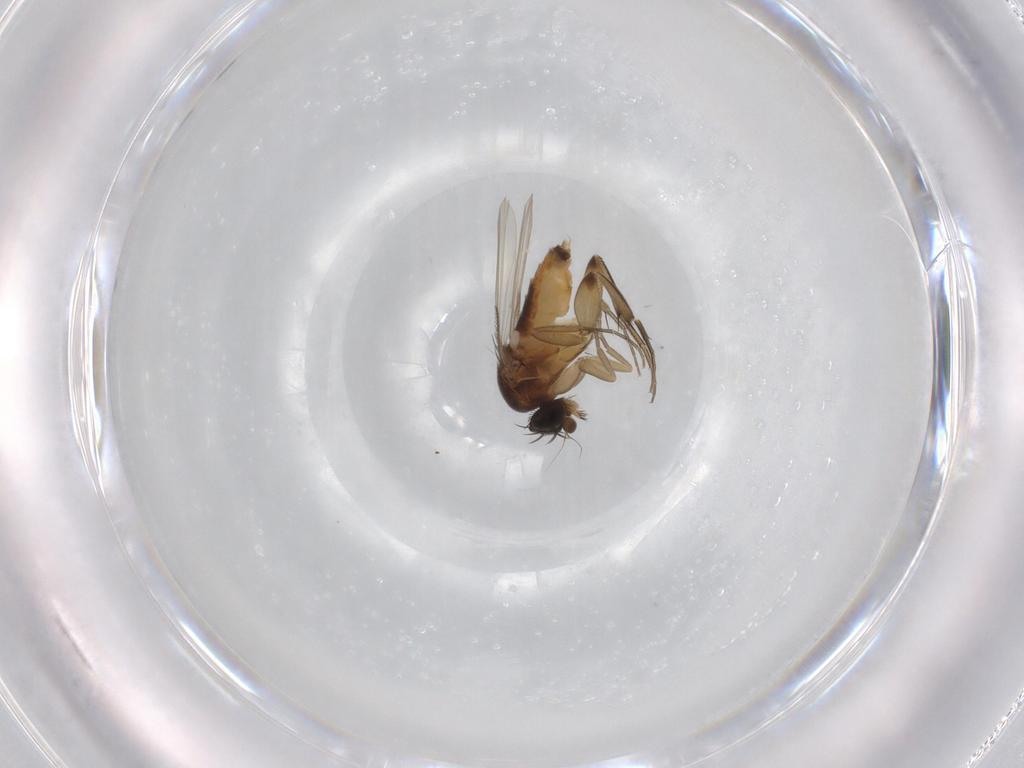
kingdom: Animalia
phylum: Arthropoda
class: Insecta
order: Diptera
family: Phoridae
